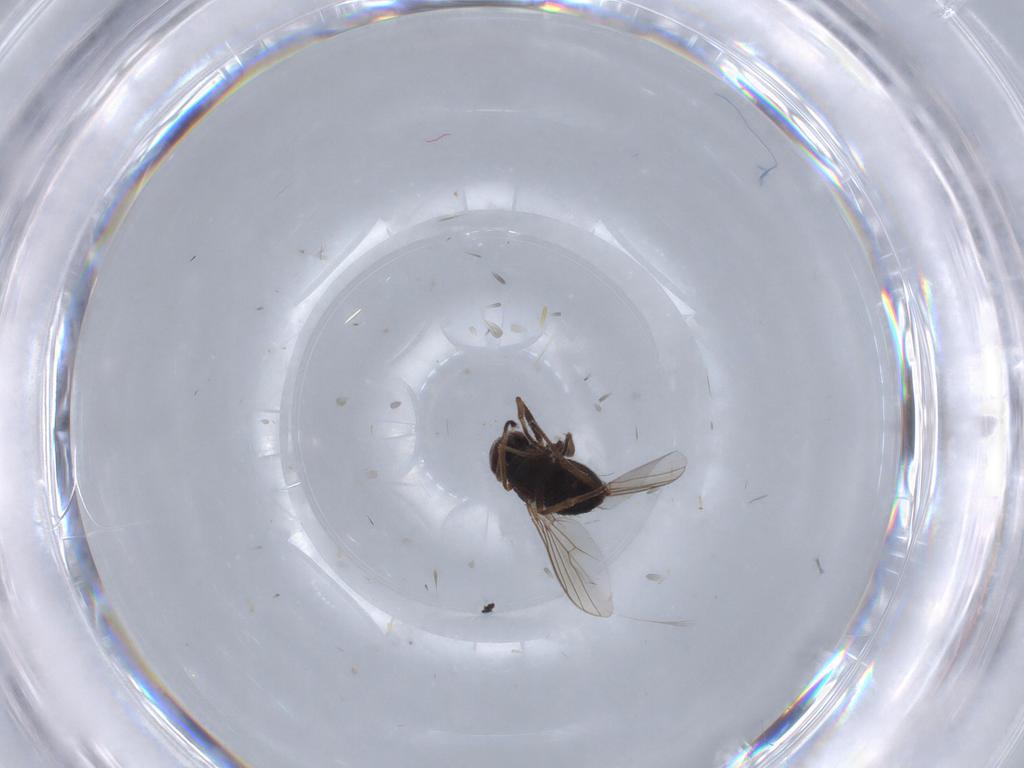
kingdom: Animalia
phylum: Arthropoda
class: Insecta
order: Diptera
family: Dolichopodidae
